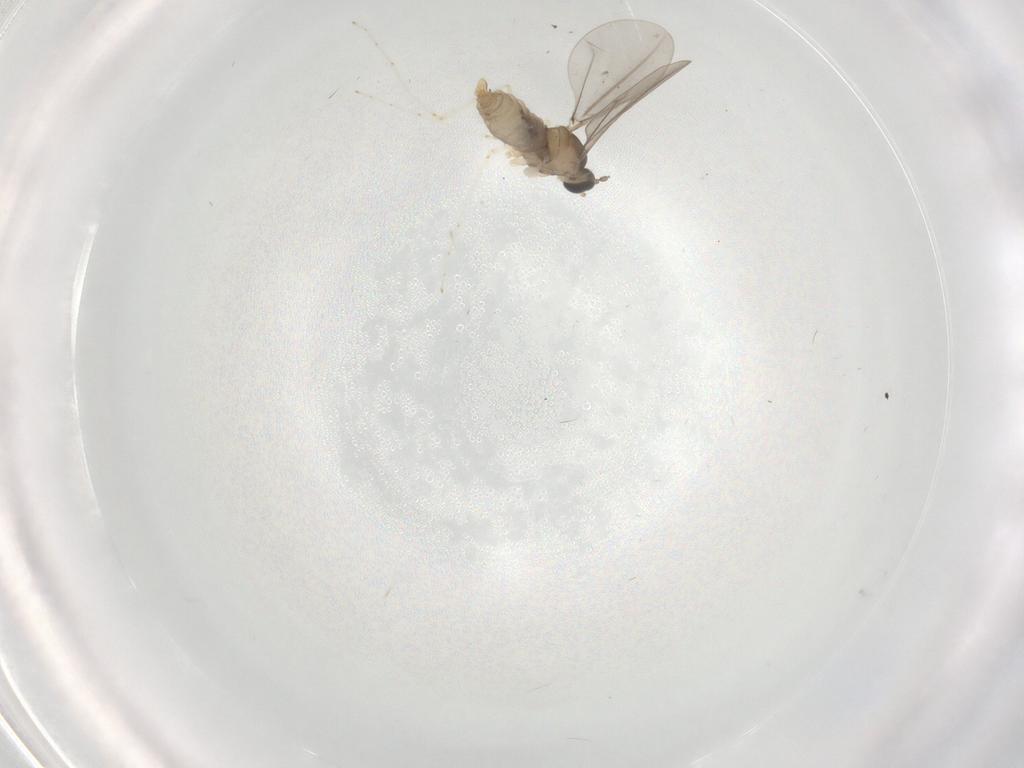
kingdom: Animalia
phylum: Arthropoda
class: Insecta
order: Diptera
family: Cecidomyiidae
